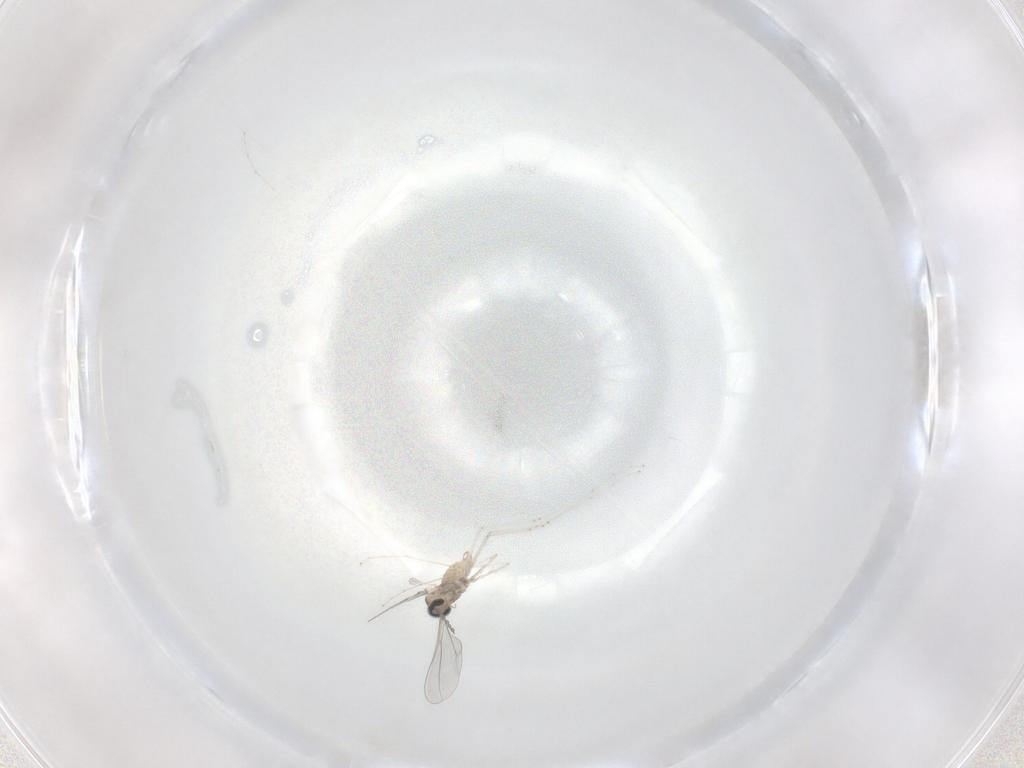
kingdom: Animalia
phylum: Arthropoda
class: Insecta
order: Diptera
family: Cecidomyiidae
